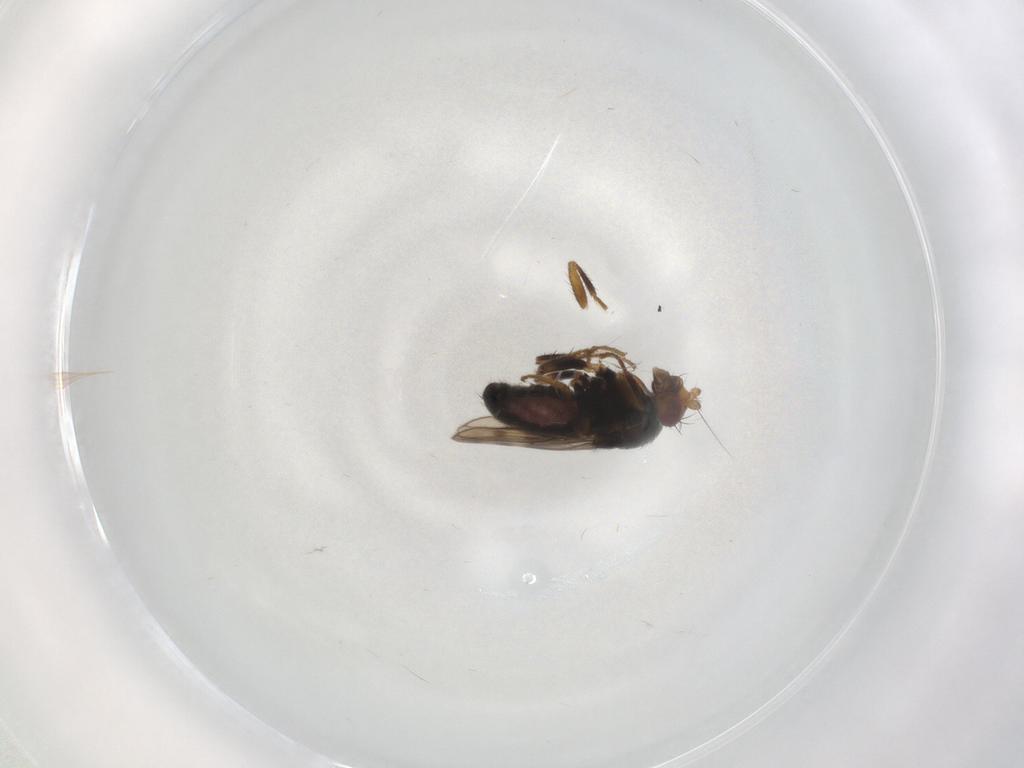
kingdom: Animalia
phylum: Arthropoda
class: Insecta
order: Diptera
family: Sphaeroceridae
